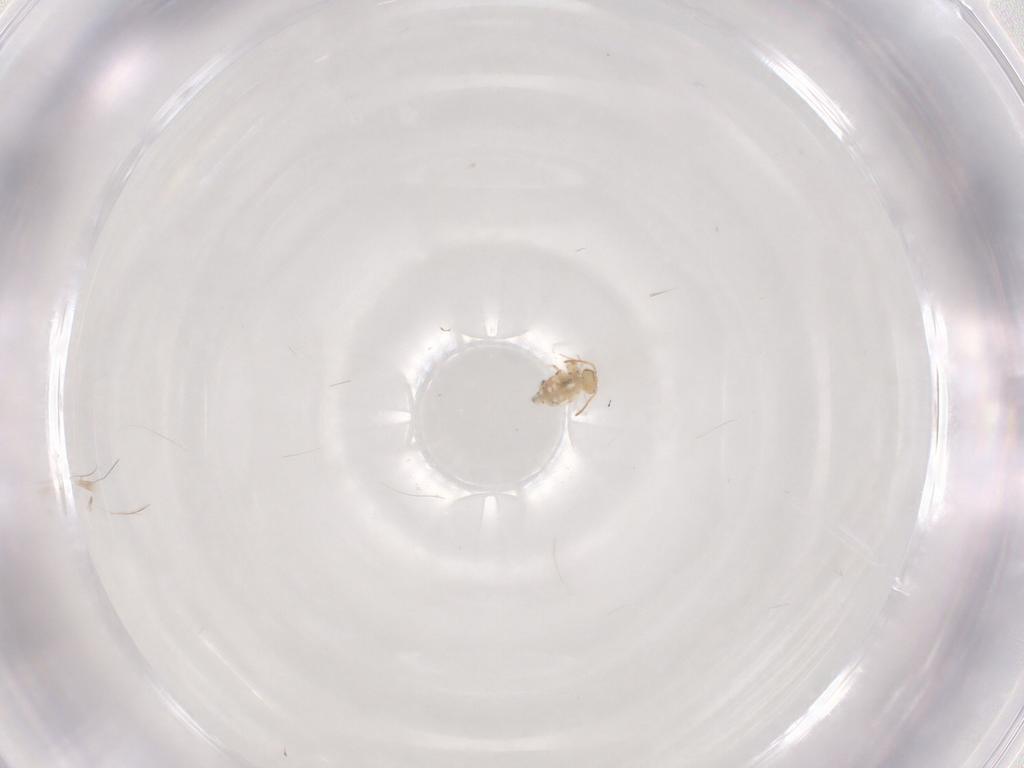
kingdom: Animalia
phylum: Arthropoda
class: Collembola
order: Symphypleona
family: Bourletiellidae
